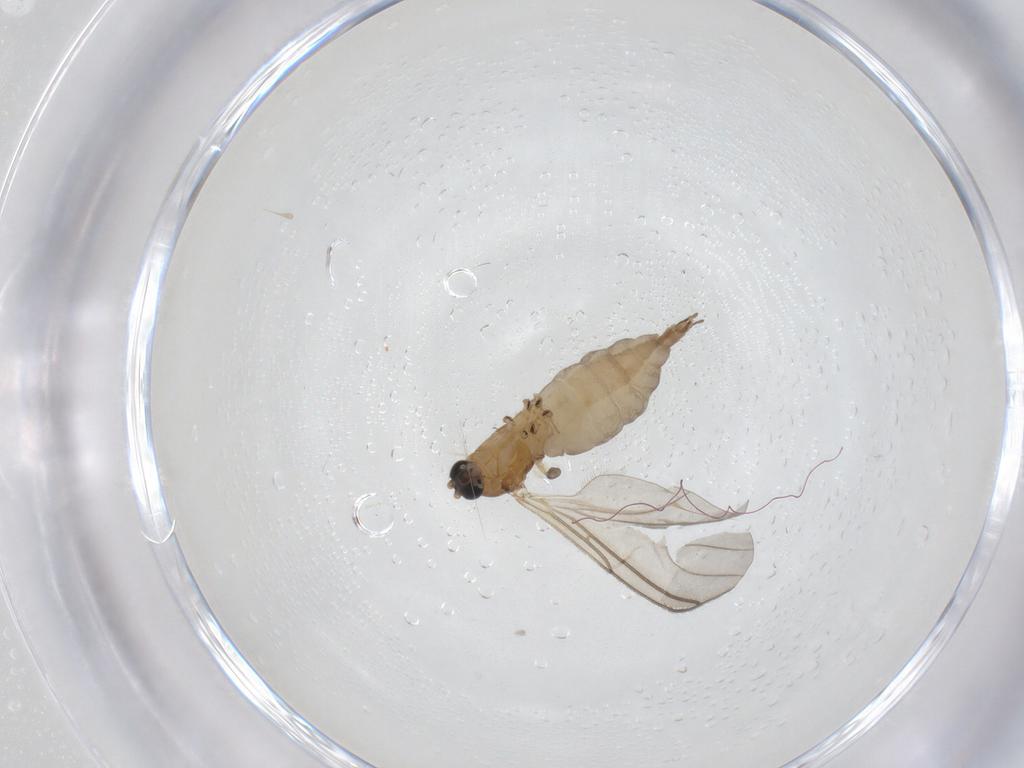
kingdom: Animalia
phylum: Arthropoda
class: Insecta
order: Diptera
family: Sciaridae
